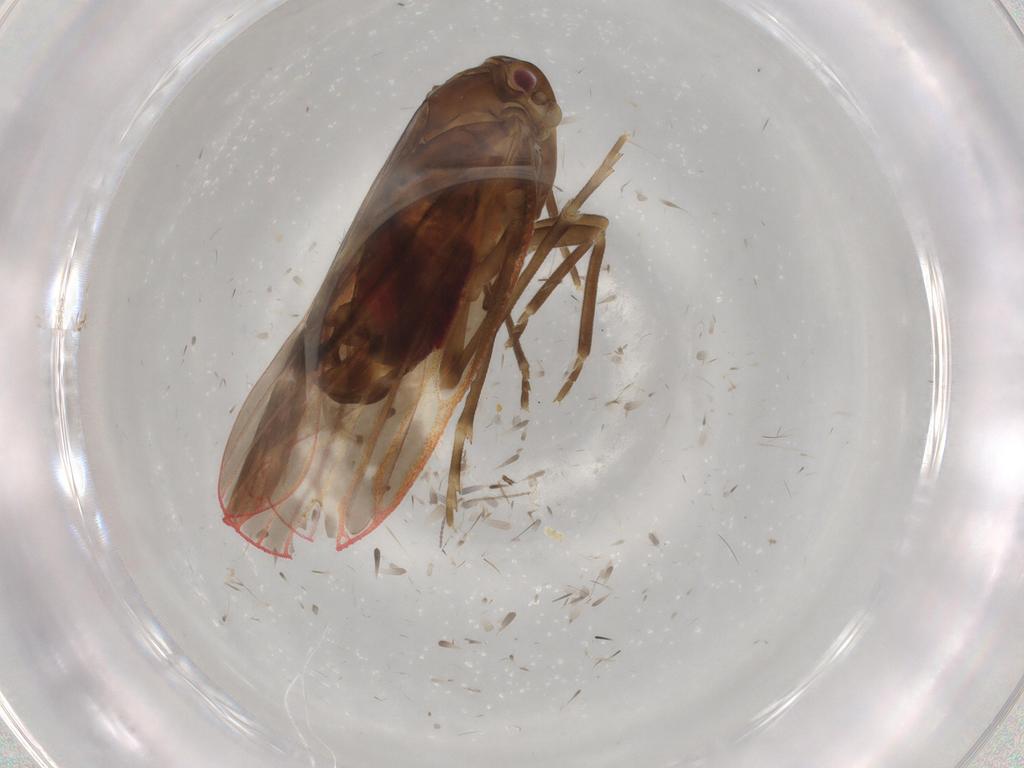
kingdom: Animalia
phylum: Arthropoda
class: Insecta
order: Hemiptera
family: Achilidae
